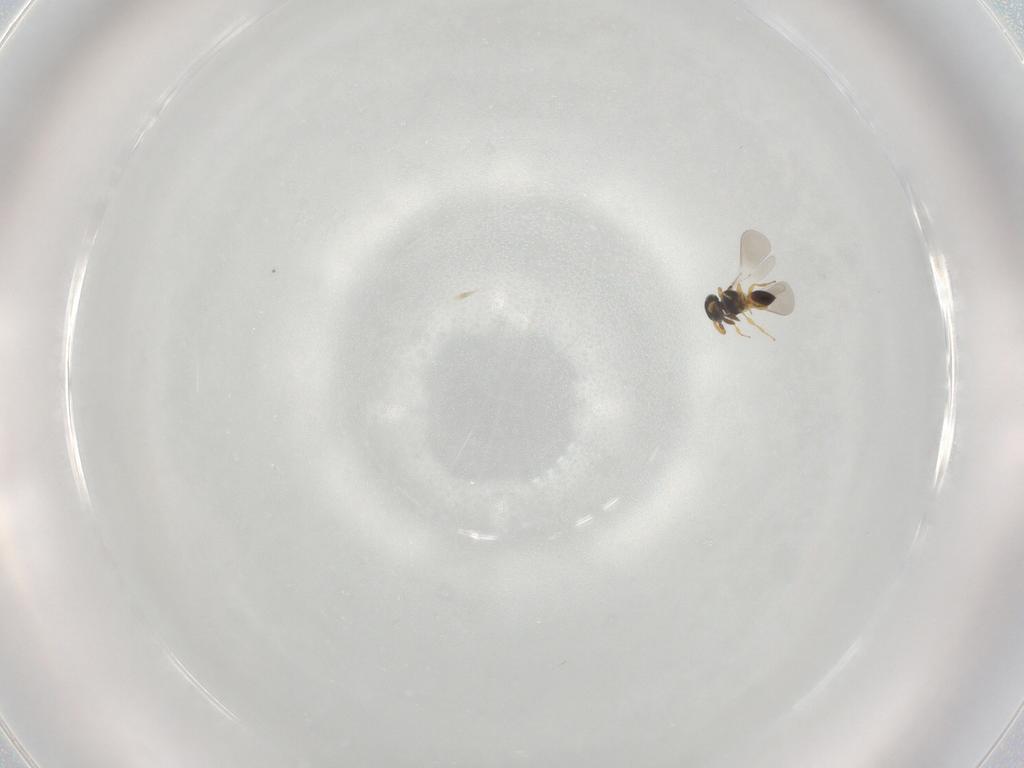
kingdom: Animalia
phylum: Arthropoda
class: Insecta
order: Hymenoptera
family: Platygastridae
